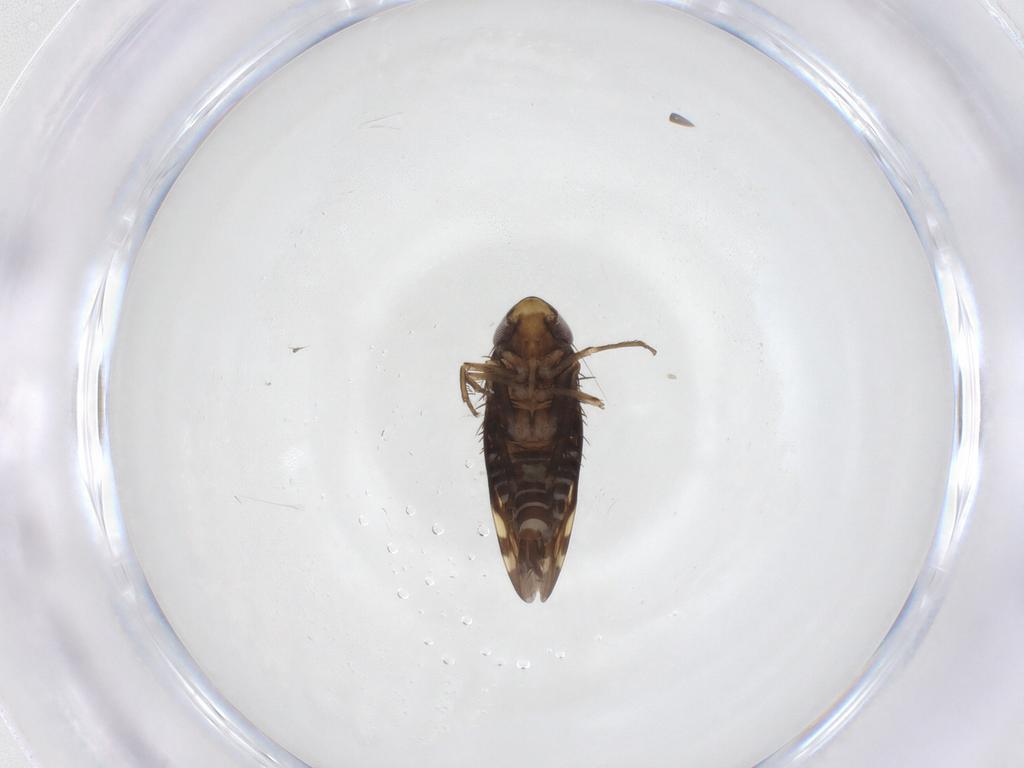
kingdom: Animalia
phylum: Arthropoda
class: Insecta
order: Hemiptera
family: Cicadellidae
